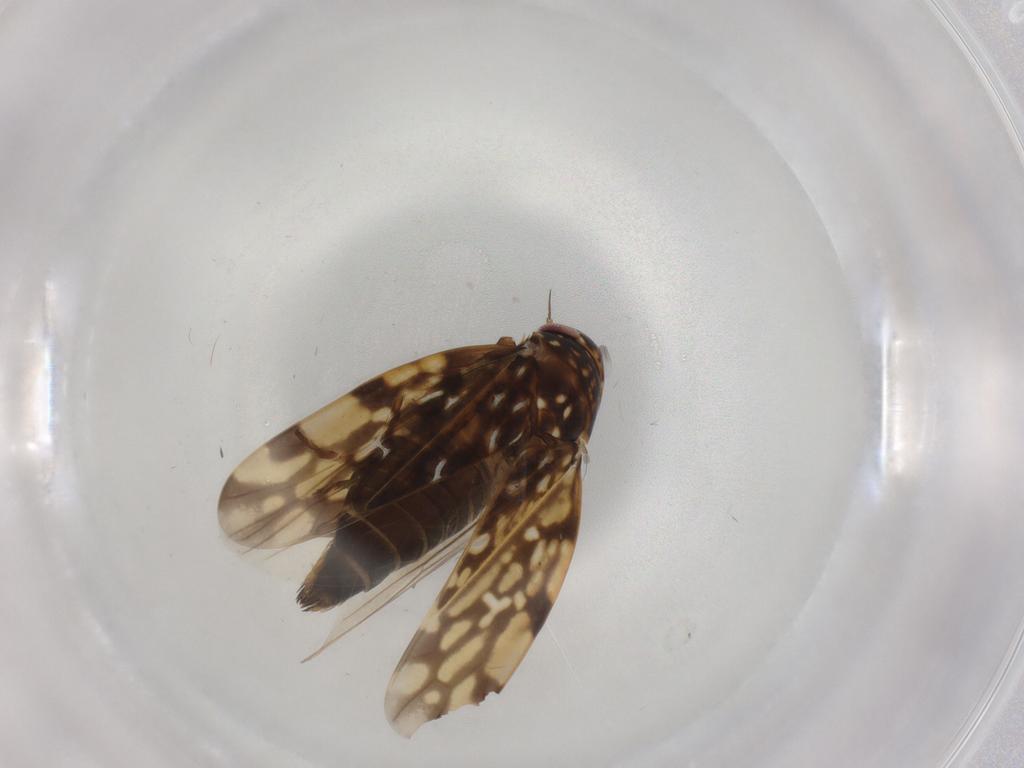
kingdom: Animalia
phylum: Arthropoda
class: Insecta
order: Hemiptera
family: Cicadellidae
